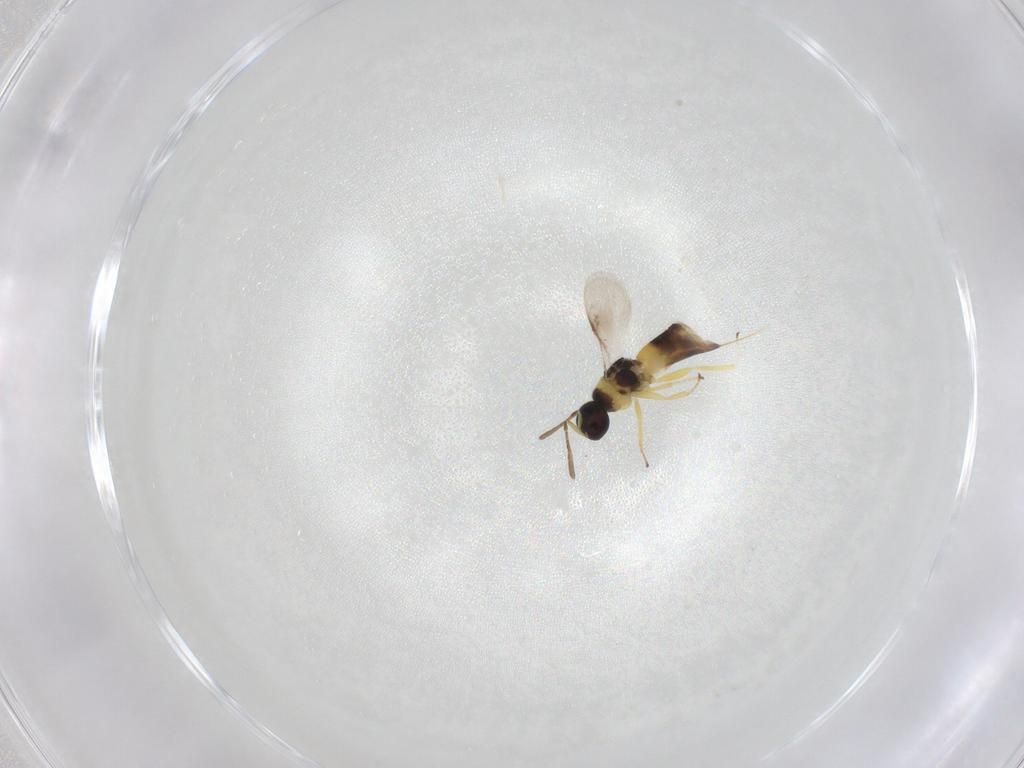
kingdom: Animalia
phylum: Arthropoda
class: Insecta
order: Hymenoptera
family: Encyrtidae
